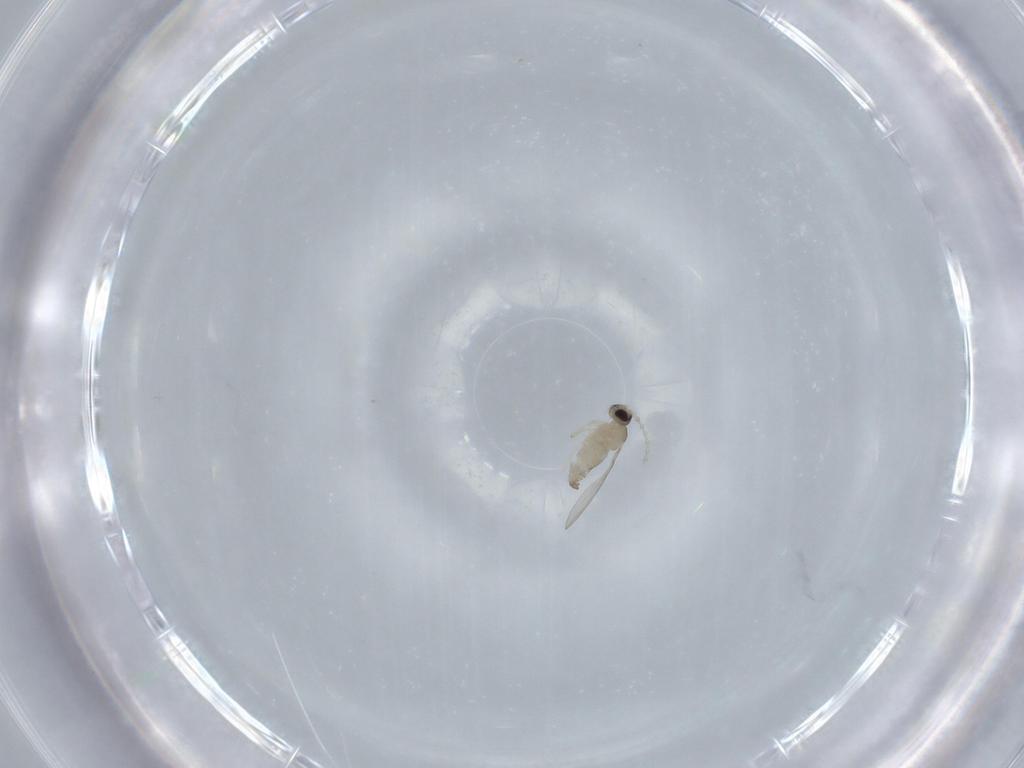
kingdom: Animalia
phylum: Arthropoda
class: Insecta
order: Diptera
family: Cecidomyiidae
